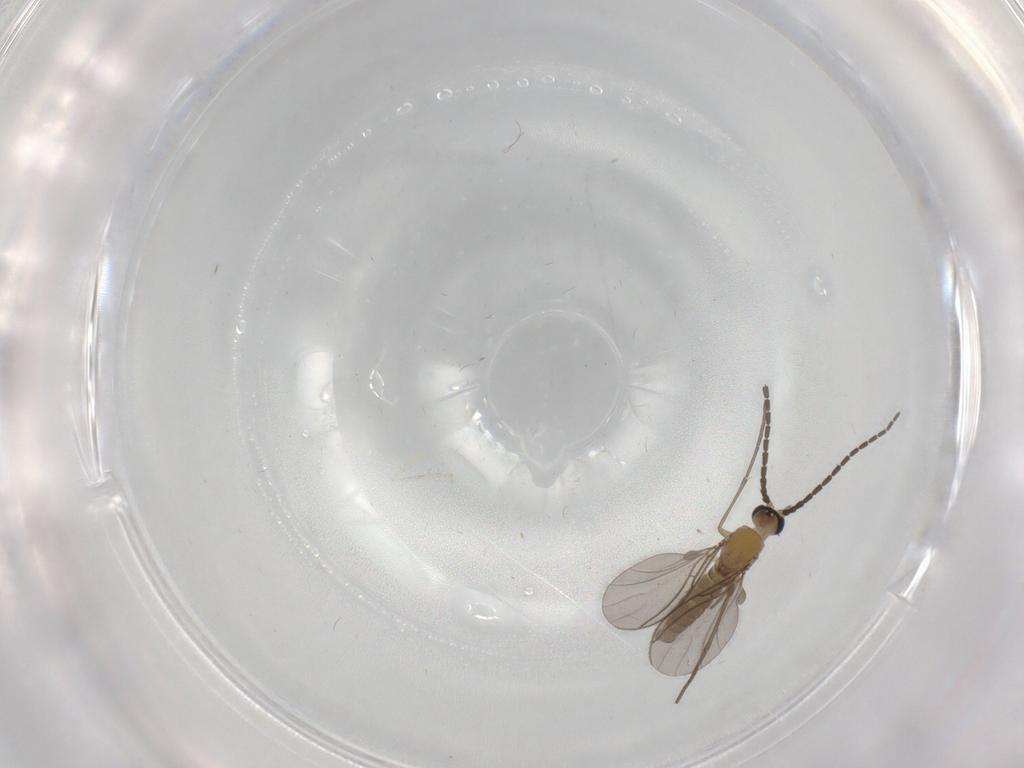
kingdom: Animalia
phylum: Arthropoda
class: Insecta
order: Diptera
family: Sciaridae
